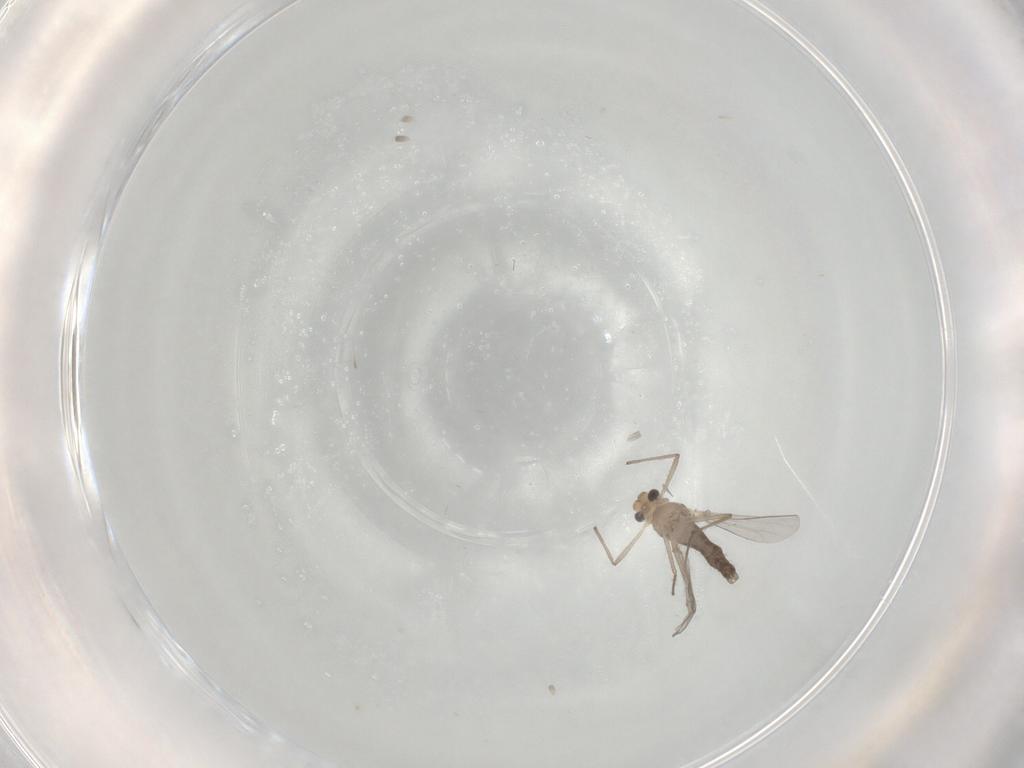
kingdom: Animalia
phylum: Arthropoda
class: Insecta
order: Diptera
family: Chironomidae
